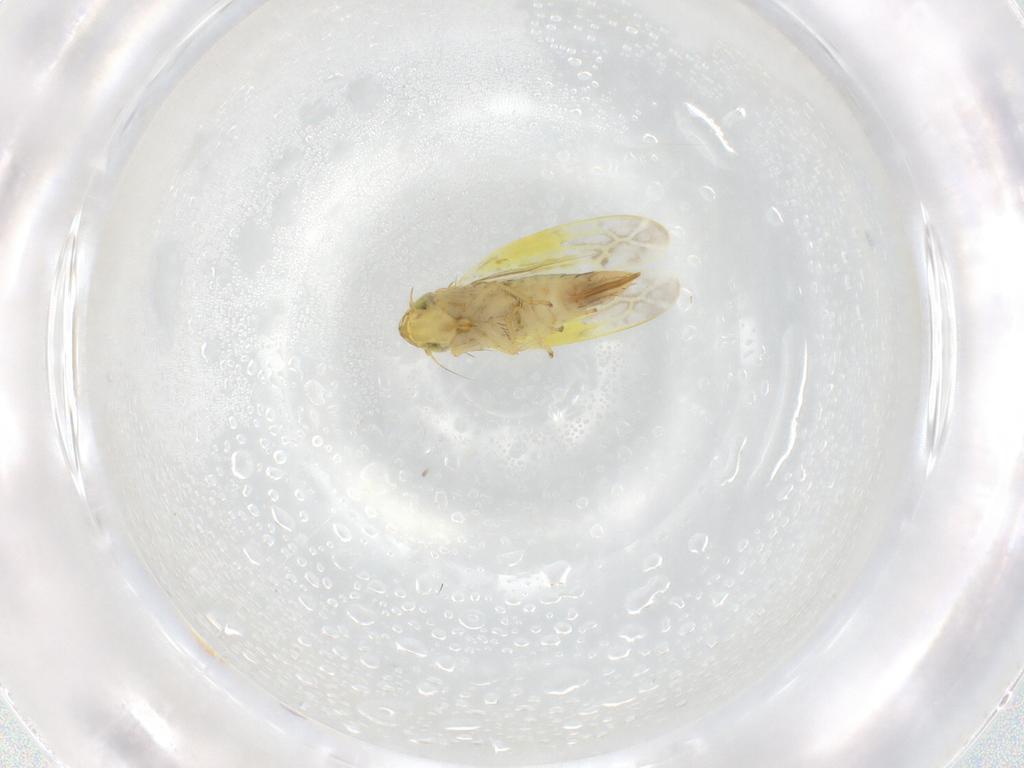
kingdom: Animalia
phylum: Arthropoda
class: Insecta
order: Hemiptera
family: Cicadellidae
